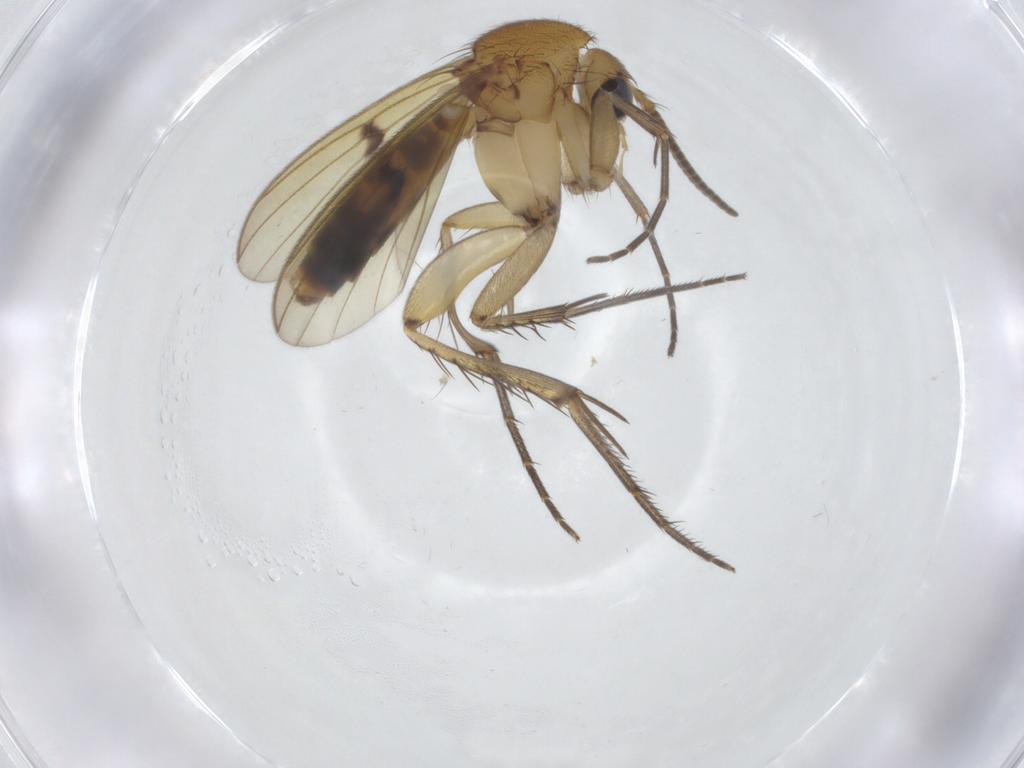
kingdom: Animalia
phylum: Arthropoda
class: Insecta
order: Diptera
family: Mycetophilidae
